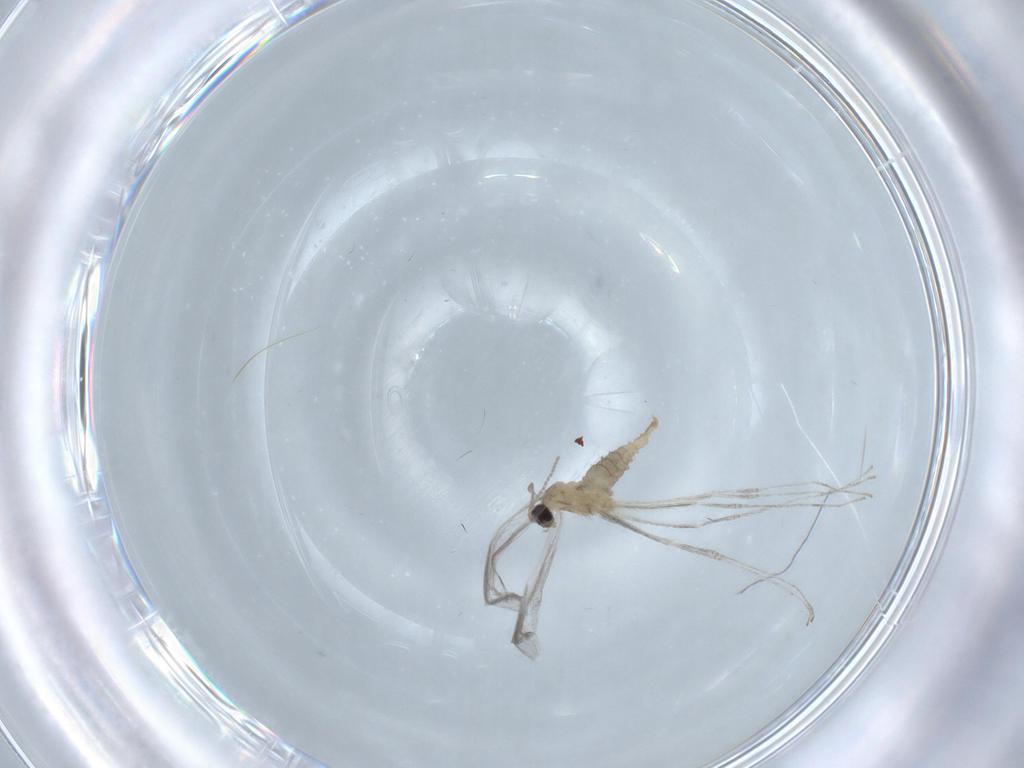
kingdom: Animalia
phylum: Arthropoda
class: Insecta
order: Diptera
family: Cecidomyiidae
